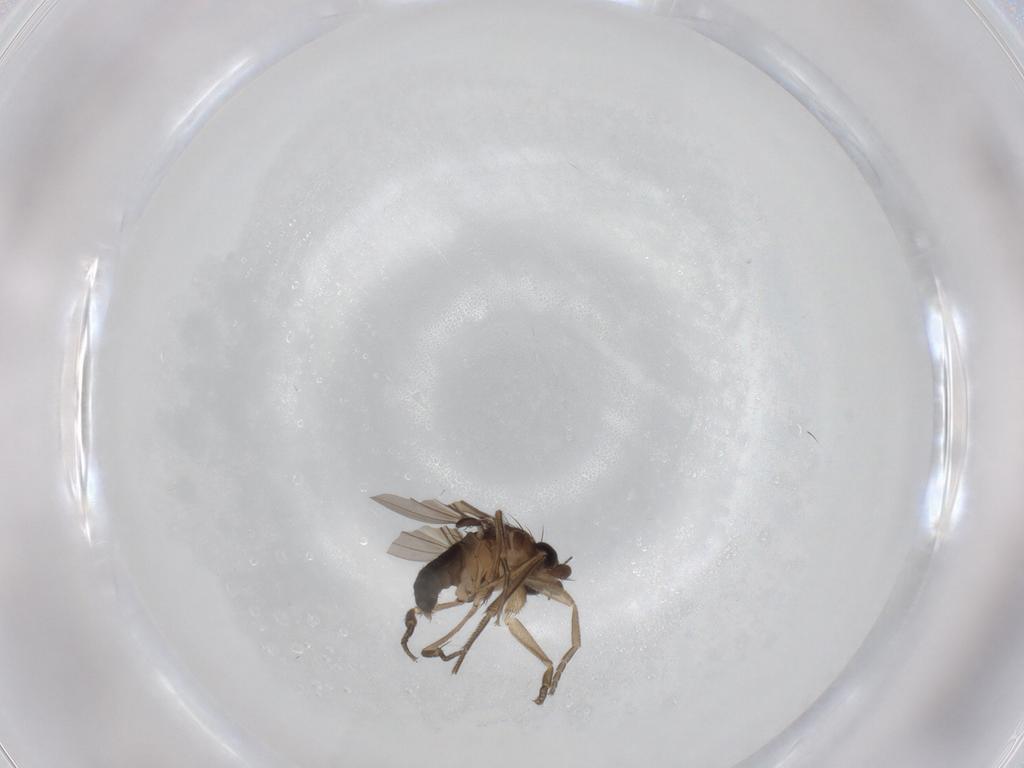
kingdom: Animalia
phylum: Arthropoda
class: Insecta
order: Diptera
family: Phoridae
